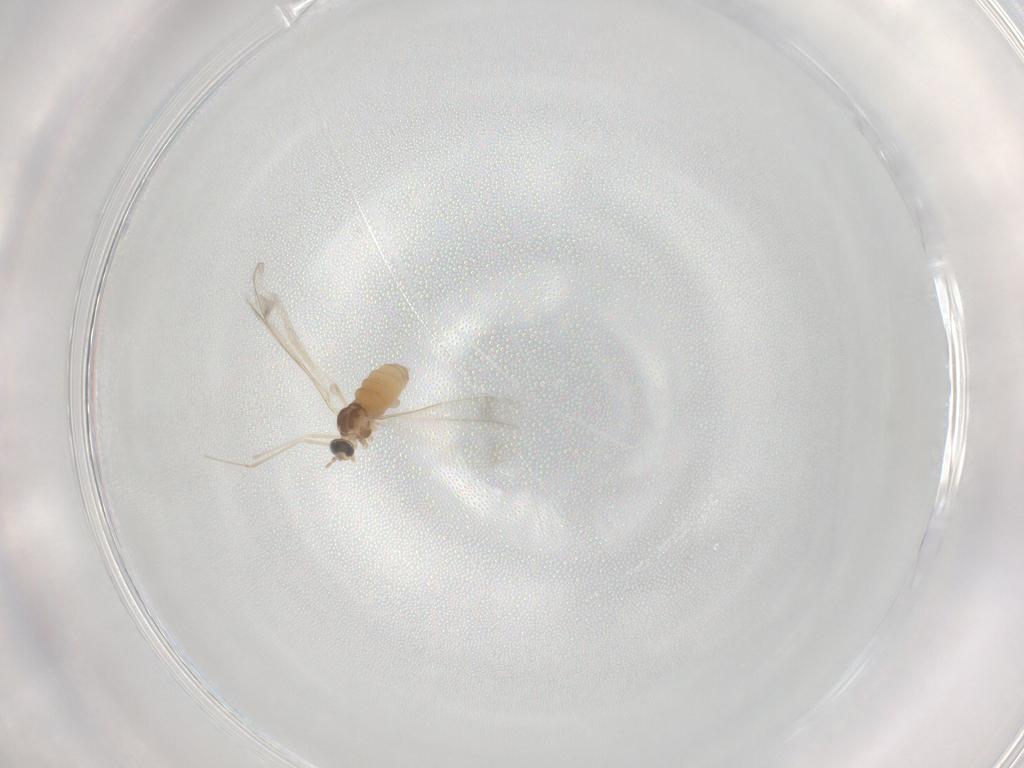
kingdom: Animalia
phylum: Arthropoda
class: Insecta
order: Diptera
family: Cecidomyiidae
